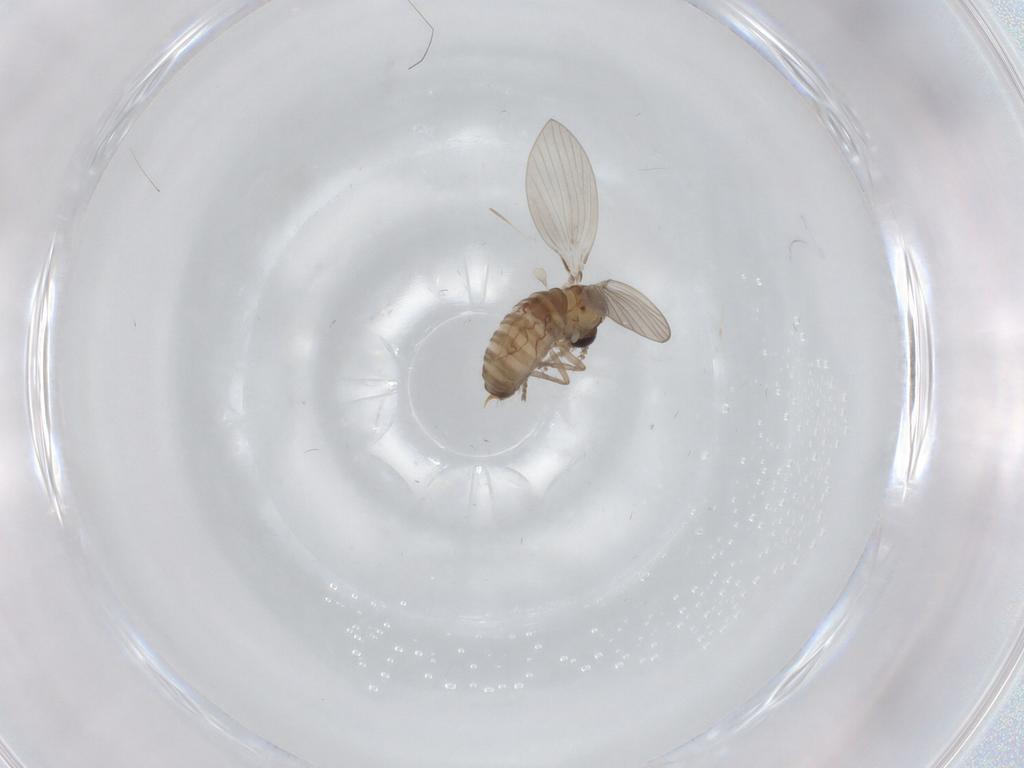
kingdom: Animalia
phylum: Arthropoda
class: Insecta
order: Diptera
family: Psychodidae
